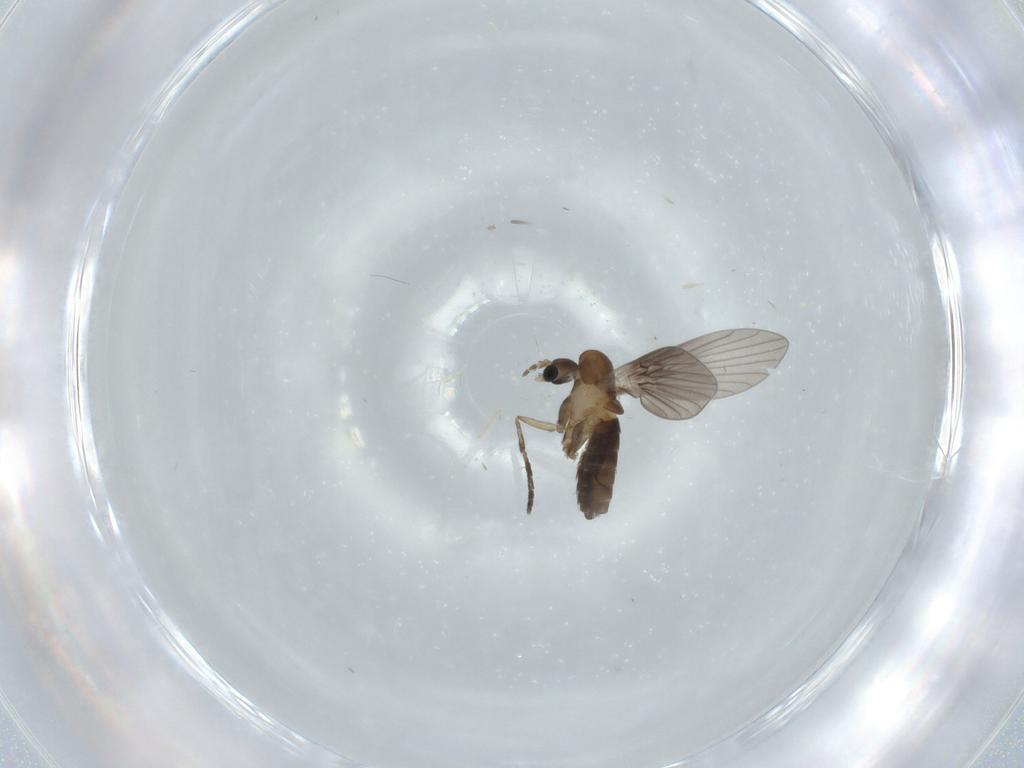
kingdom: Animalia
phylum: Arthropoda
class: Insecta
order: Diptera
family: Psychodidae
